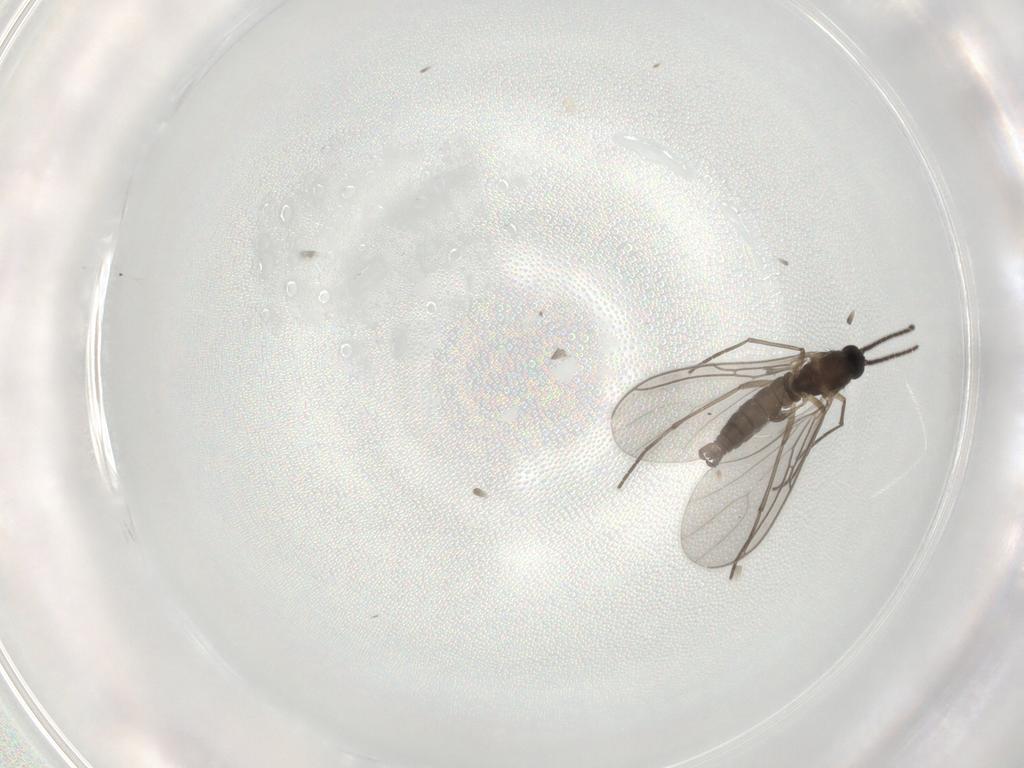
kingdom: Animalia
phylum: Arthropoda
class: Insecta
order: Diptera
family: Sciaridae
